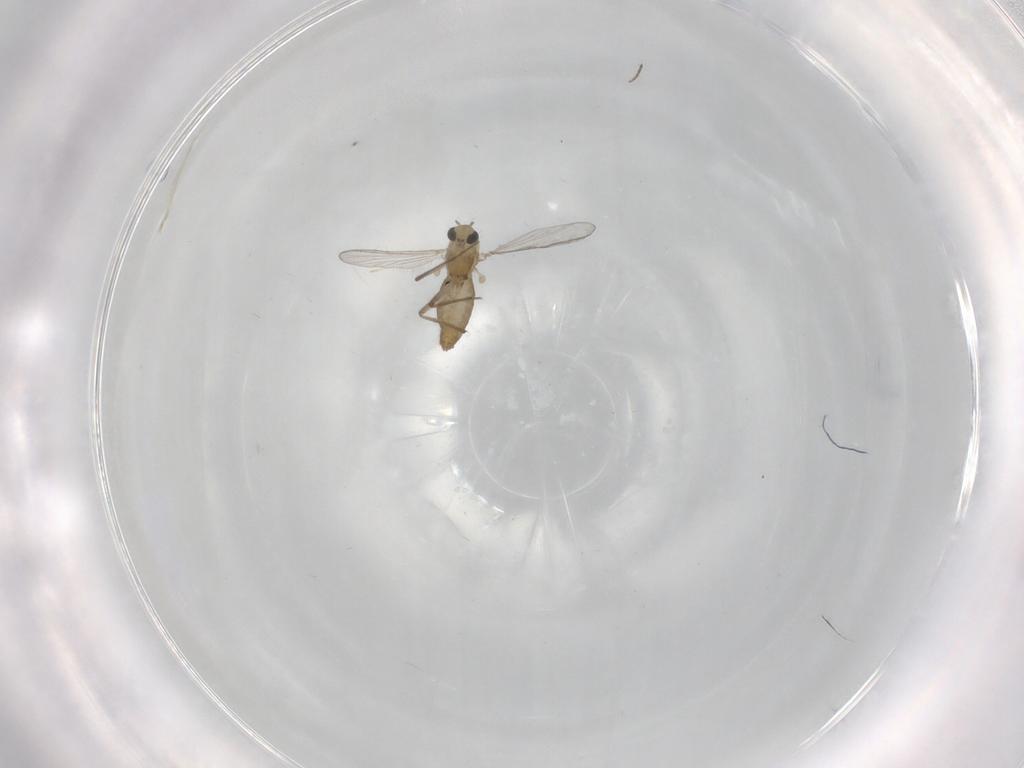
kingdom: Animalia
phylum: Arthropoda
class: Insecta
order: Diptera
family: Chironomidae
